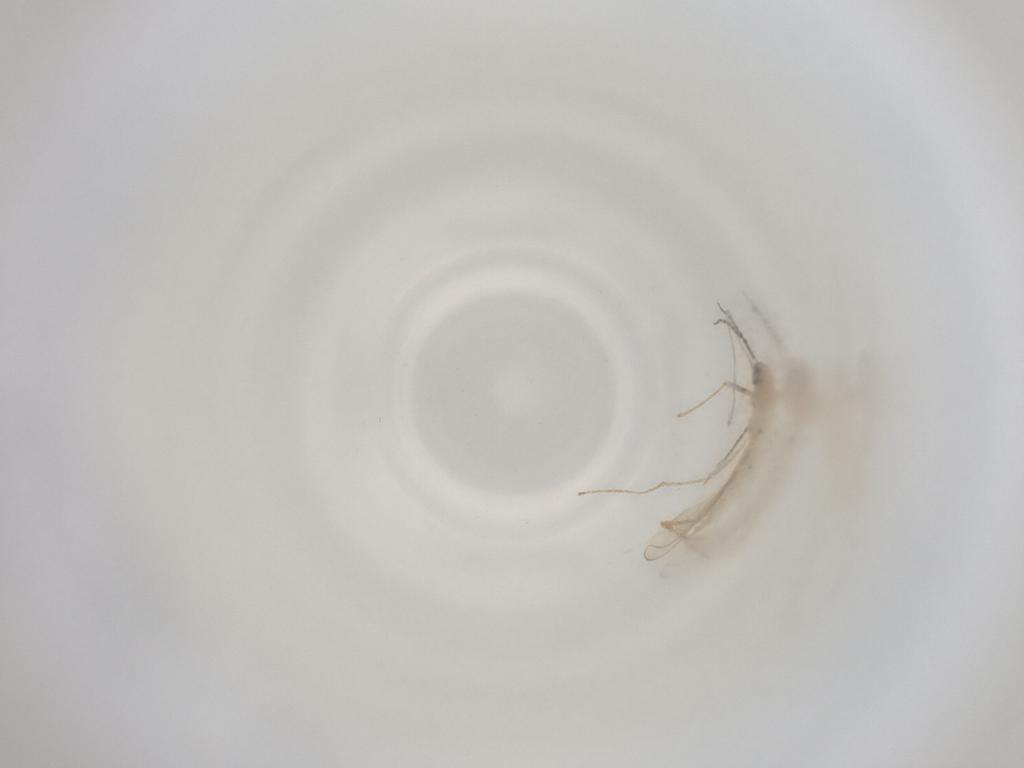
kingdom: Animalia
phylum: Arthropoda
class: Insecta
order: Diptera
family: Cecidomyiidae
